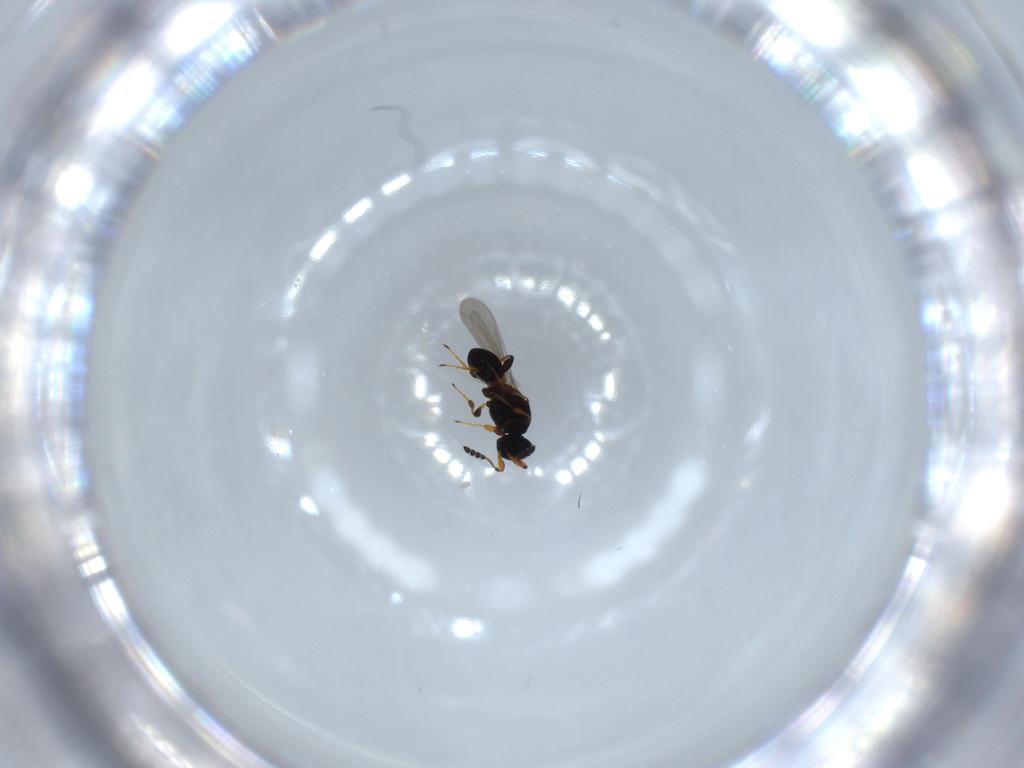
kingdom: Animalia
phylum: Arthropoda
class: Insecta
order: Hymenoptera
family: Platygastridae
